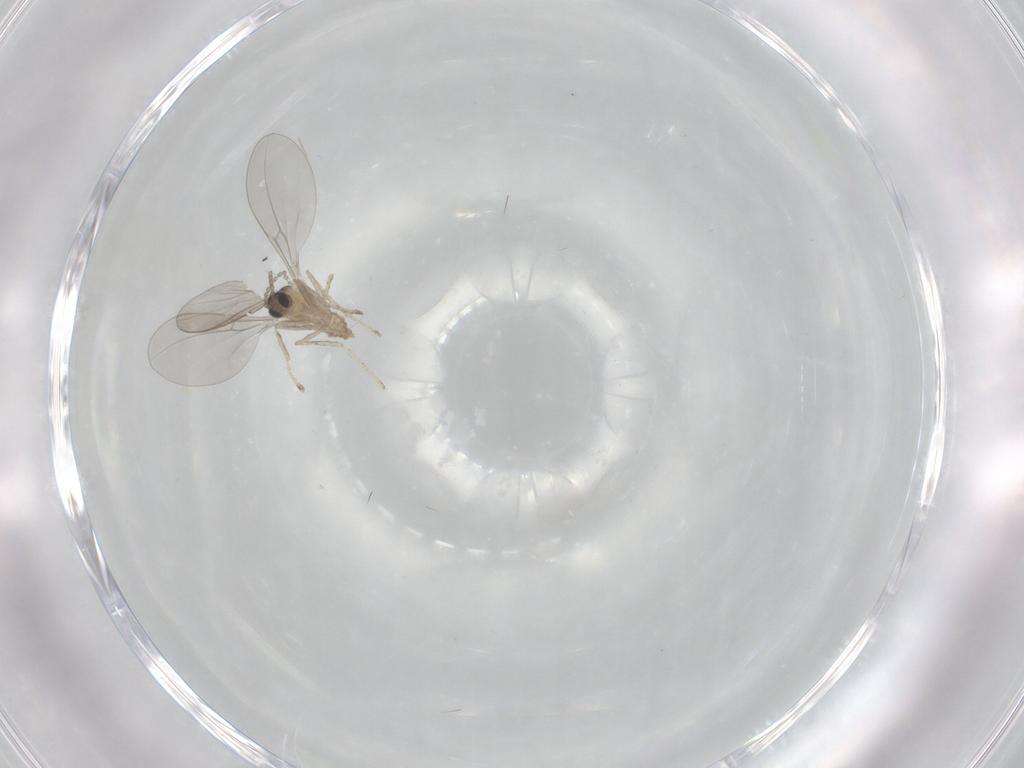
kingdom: Animalia
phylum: Arthropoda
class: Insecta
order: Diptera
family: Cecidomyiidae
